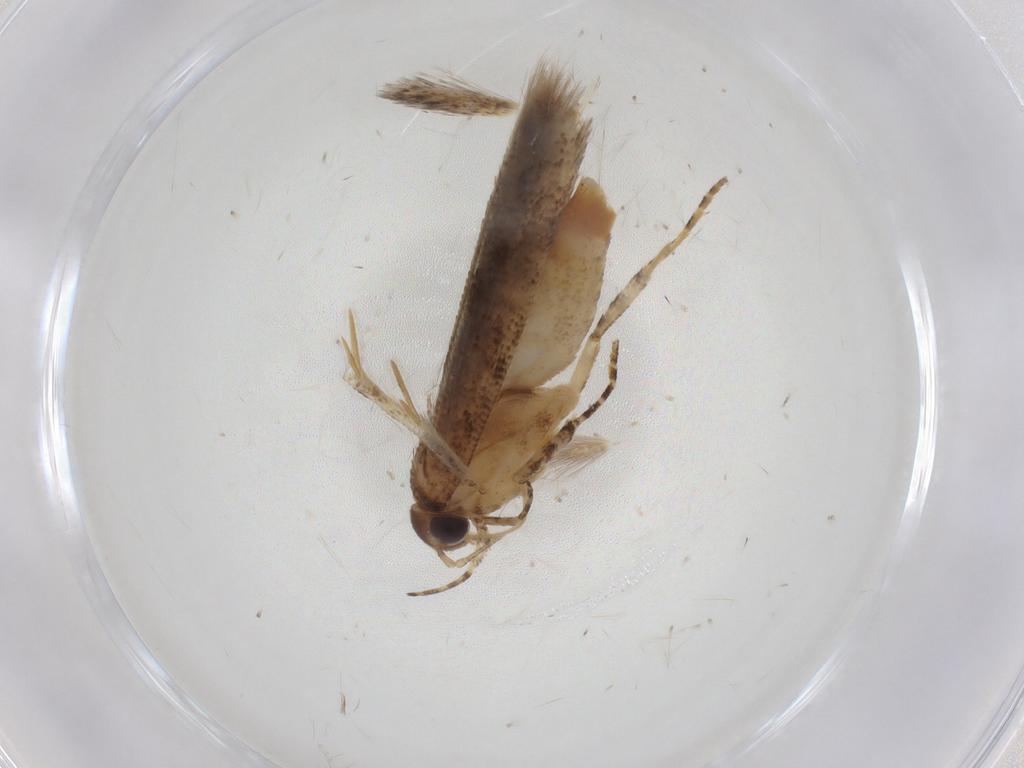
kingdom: Animalia
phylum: Arthropoda
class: Insecta
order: Lepidoptera
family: Gelechiidae
